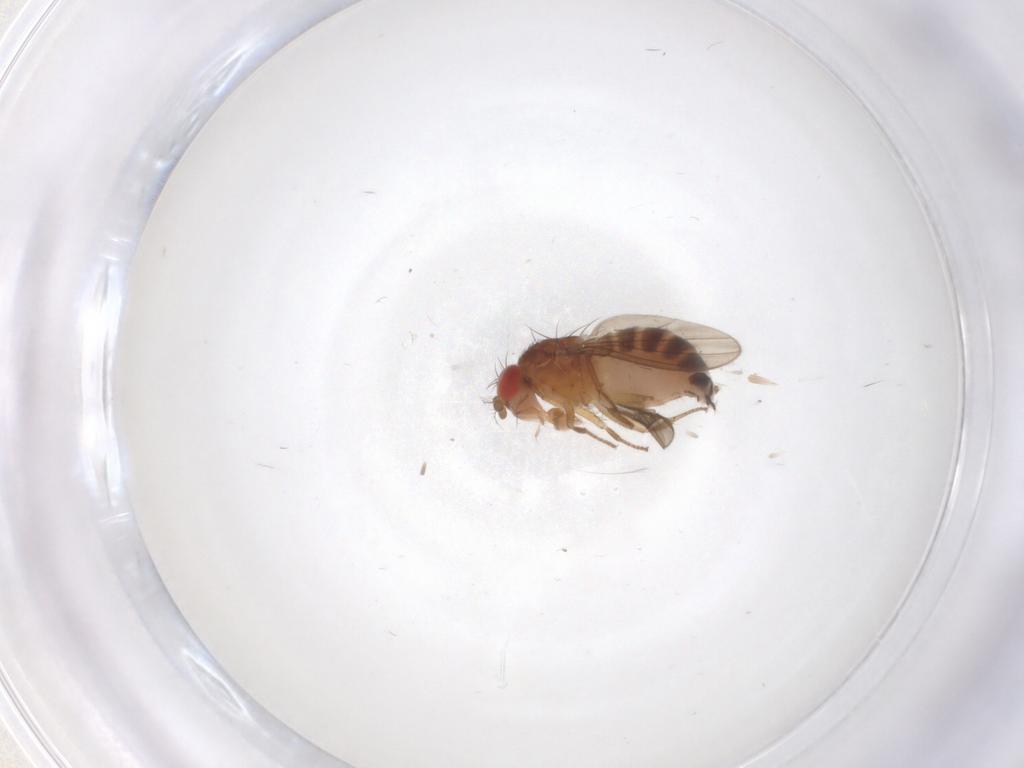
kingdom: Animalia
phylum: Arthropoda
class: Insecta
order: Diptera
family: Drosophilidae
